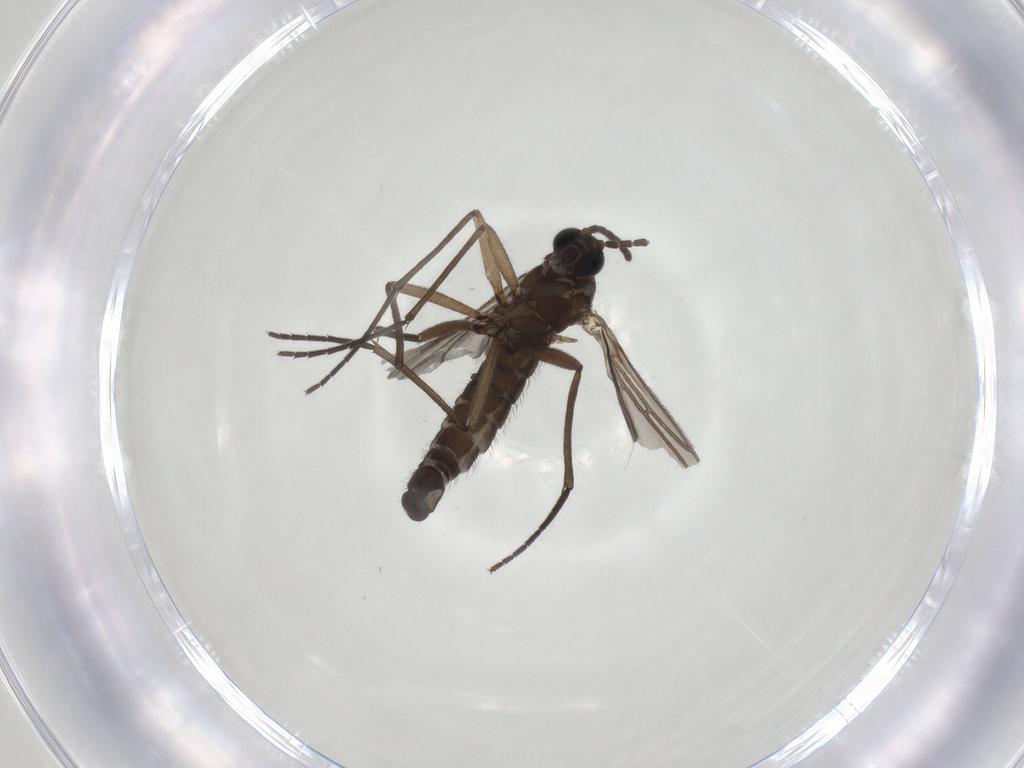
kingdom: Animalia
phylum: Arthropoda
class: Insecta
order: Diptera
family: Sciaridae
